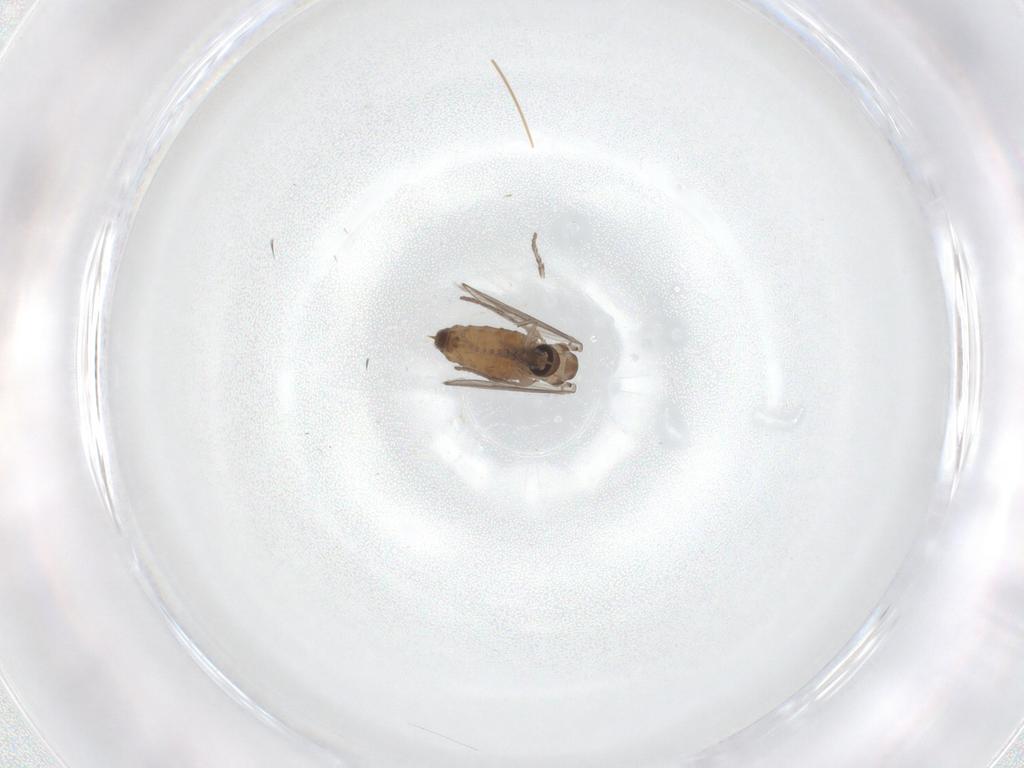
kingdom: Animalia
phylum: Arthropoda
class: Insecta
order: Diptera
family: Psychodidae
